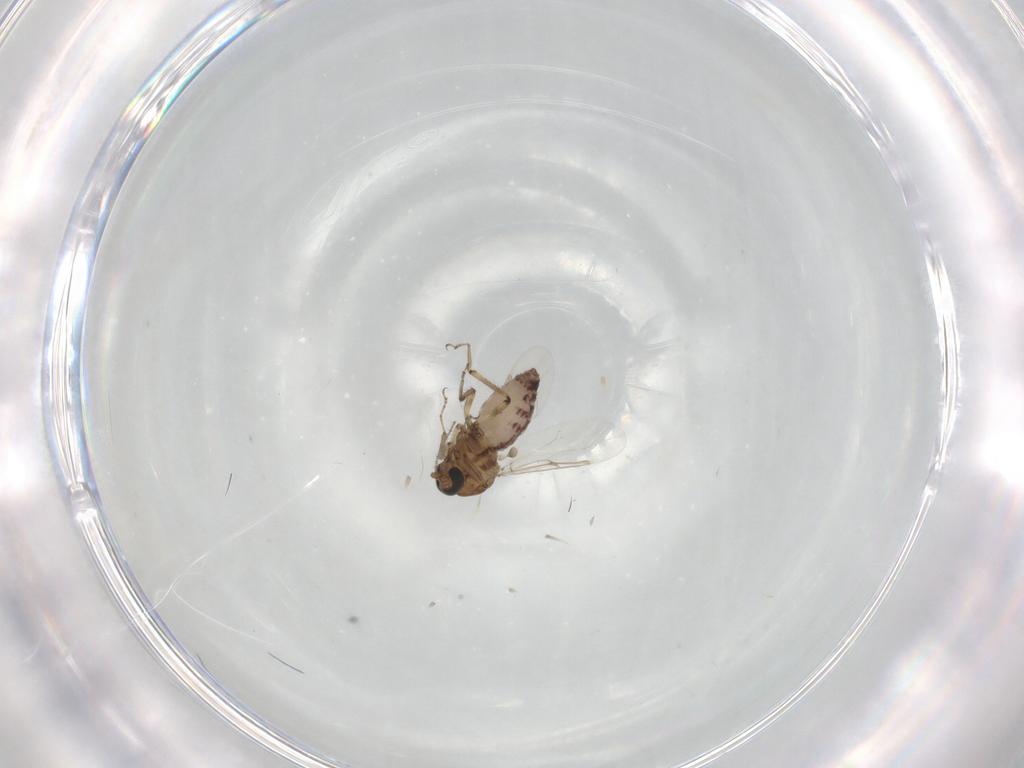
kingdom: Animalia
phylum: Arthropoda
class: Insecta
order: Diptera
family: Ceratopogonidae
